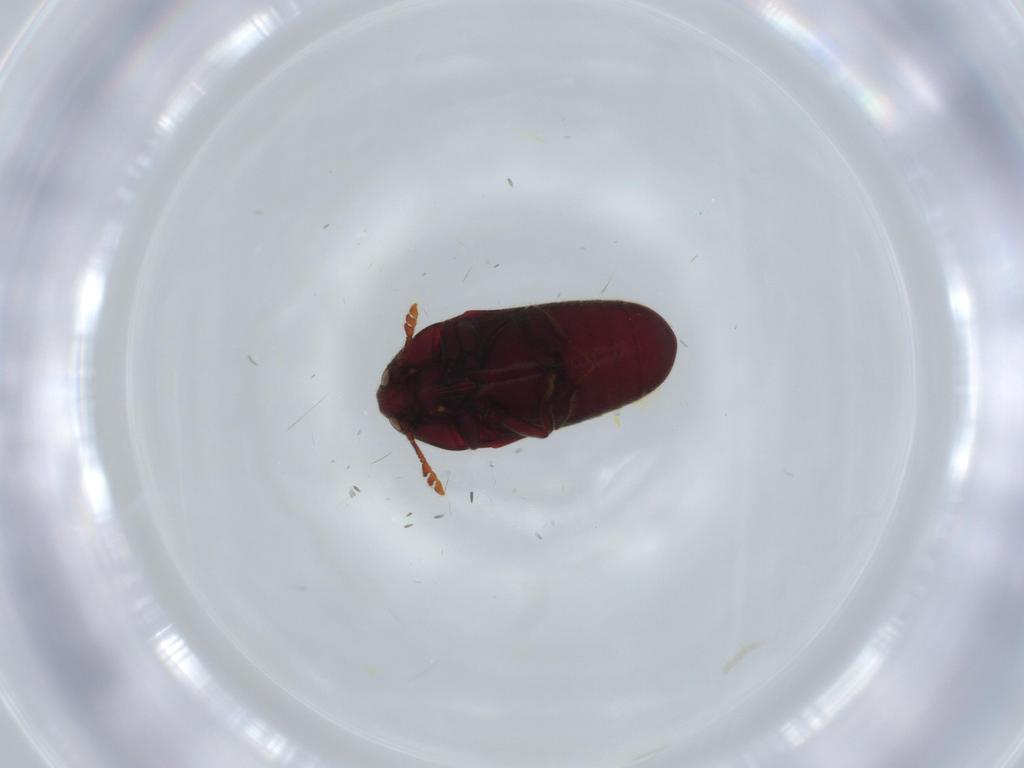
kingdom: Animalia
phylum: Arthropoda
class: Insecta
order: Coleoptera
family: Throscidae
